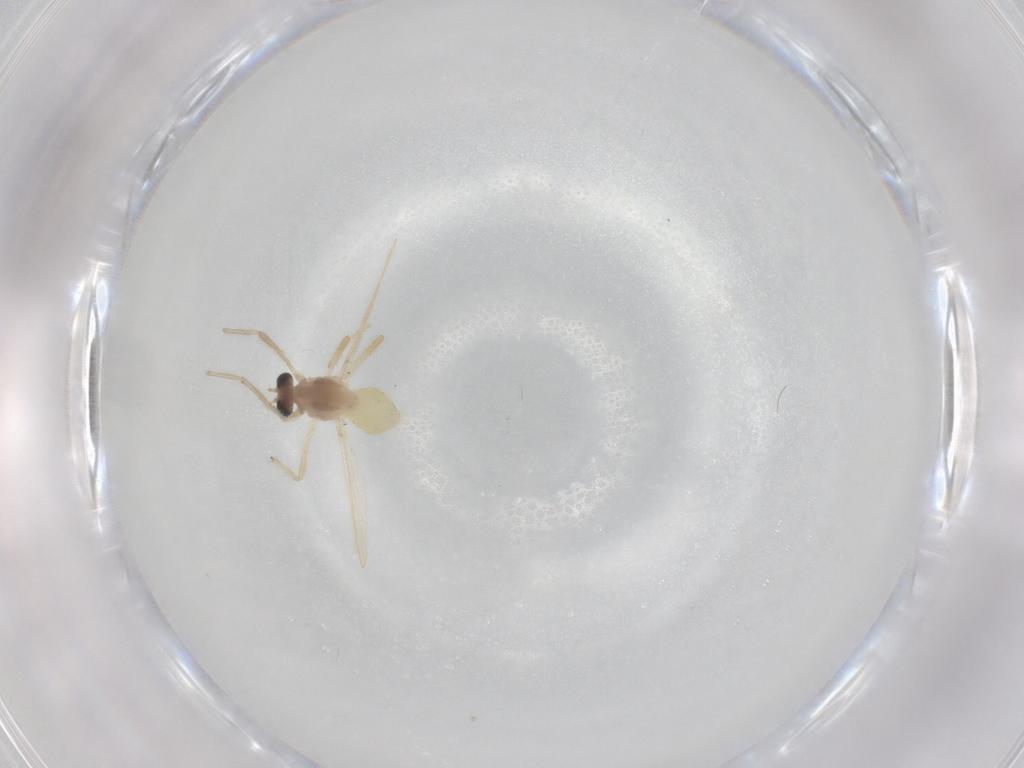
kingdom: Animalia
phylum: Arthropoda
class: Insecta
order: Diptera
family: Chironomidae
